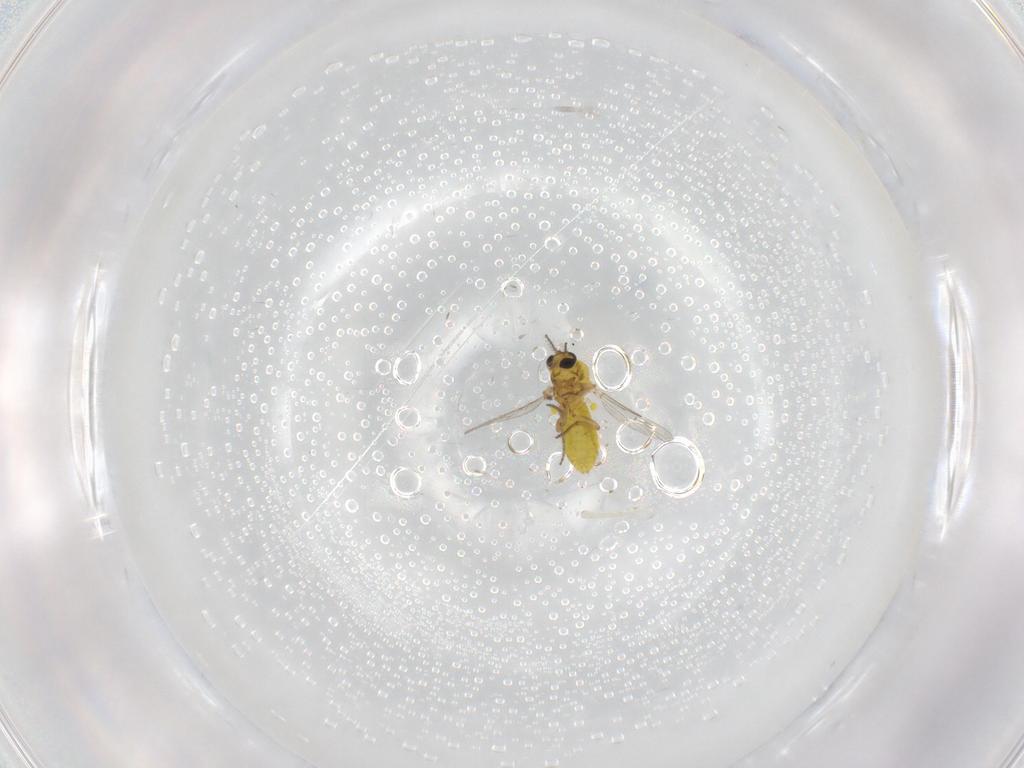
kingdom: Animalia
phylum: Arthropoda
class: Insecta
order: Diptera
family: Ceratopogonidae
